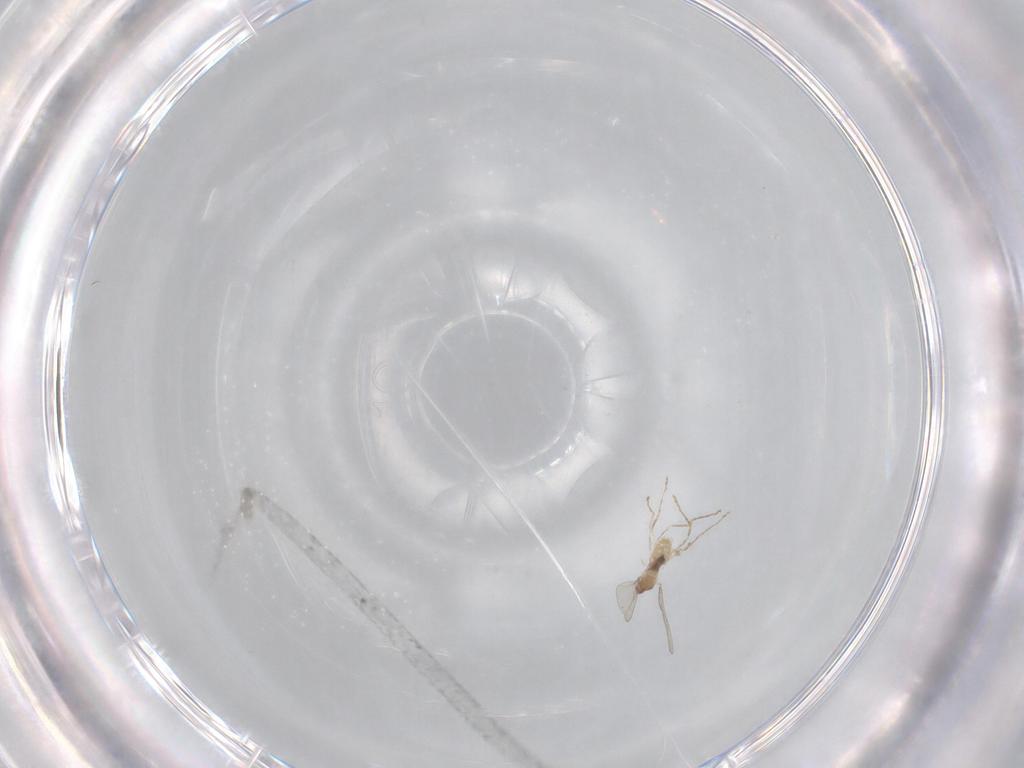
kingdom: Animalia
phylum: Arthropoda
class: Insecta
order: Diptera
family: Cecidomyiidae
